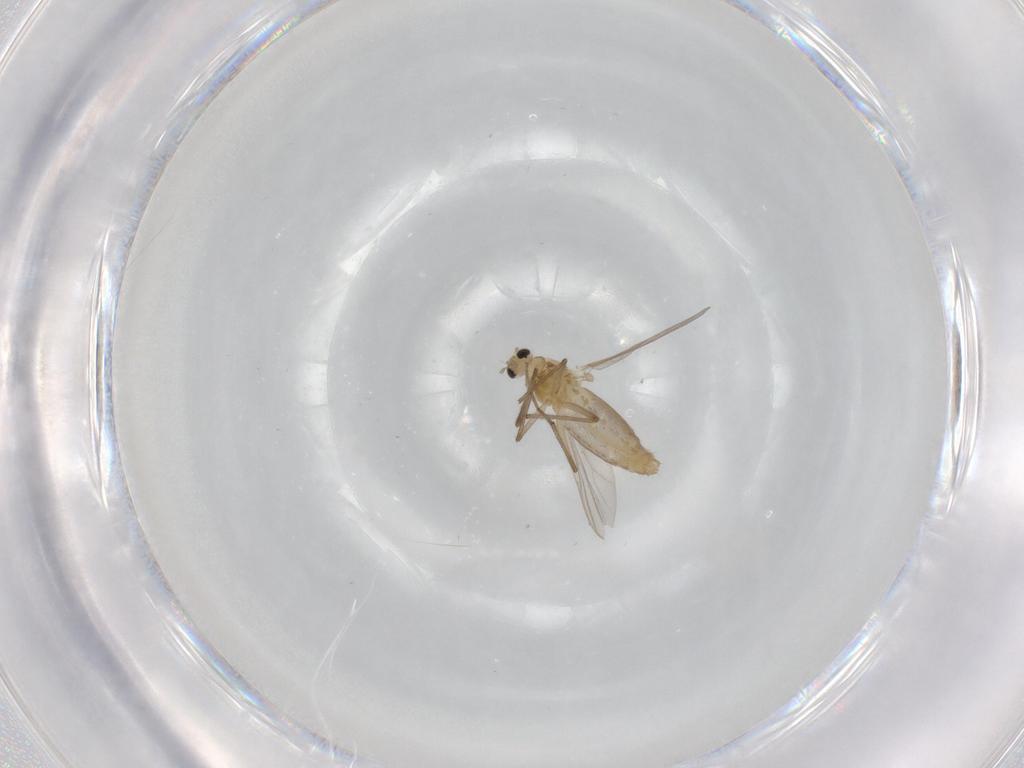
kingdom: Animalia
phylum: Arthropoda
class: Insecta
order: Diptera
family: Chironomidae
